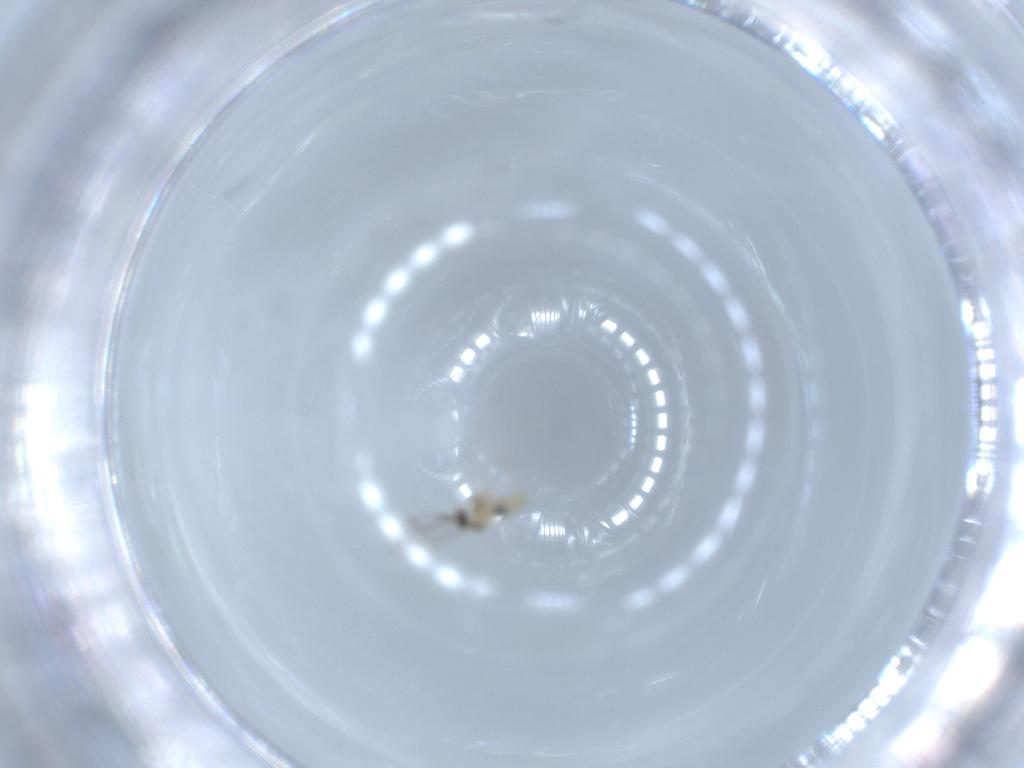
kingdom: Animalia
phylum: Arthropoda
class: Insecta
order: Diptera
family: Cecidomyiidae
